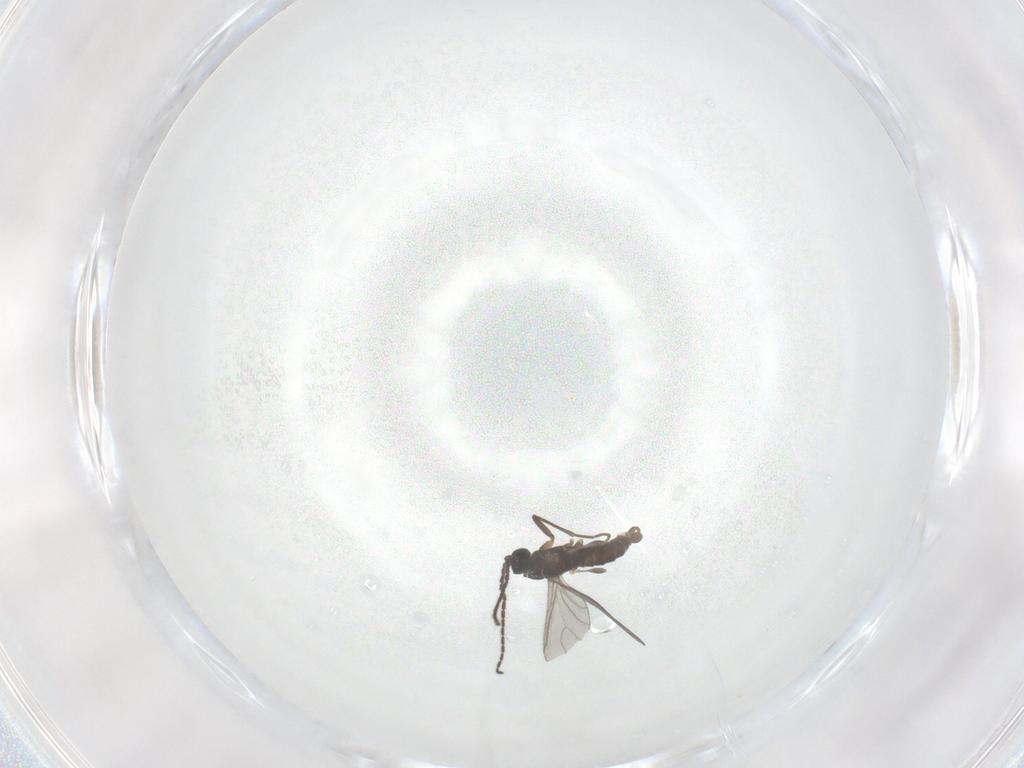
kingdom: Animalia
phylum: Arthropoda
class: Insecta
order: Diptera
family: Sciaridae
